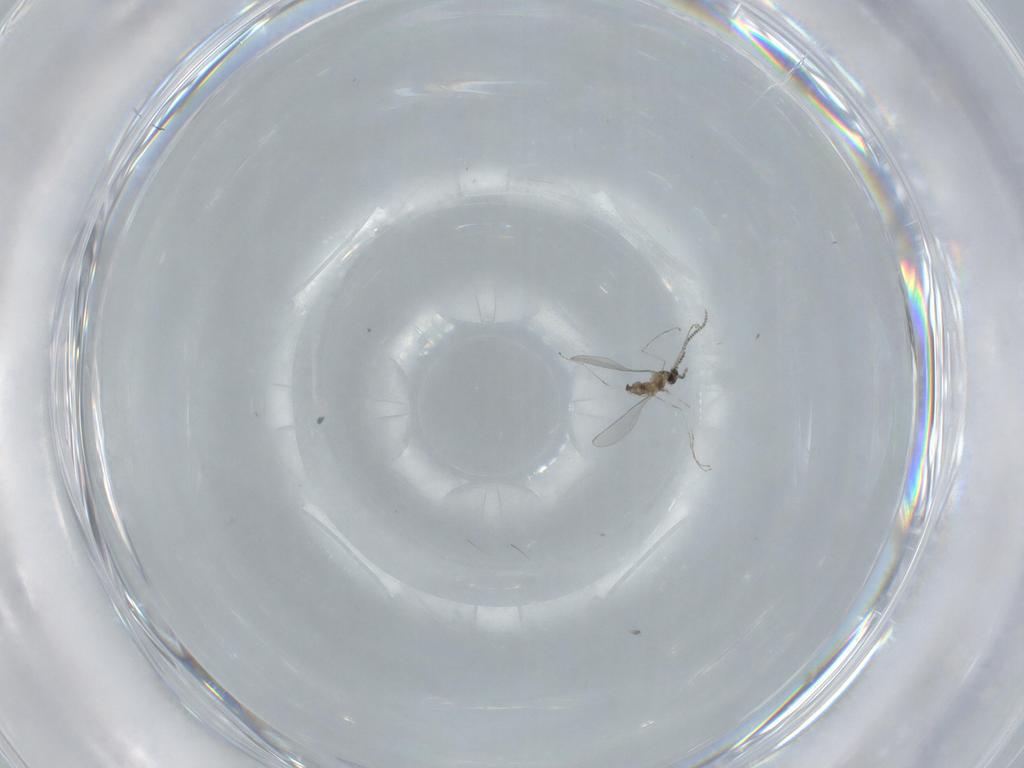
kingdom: Animalia
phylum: Arthropoda
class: Insecta
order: Diptera
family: Cecidomyiidae
